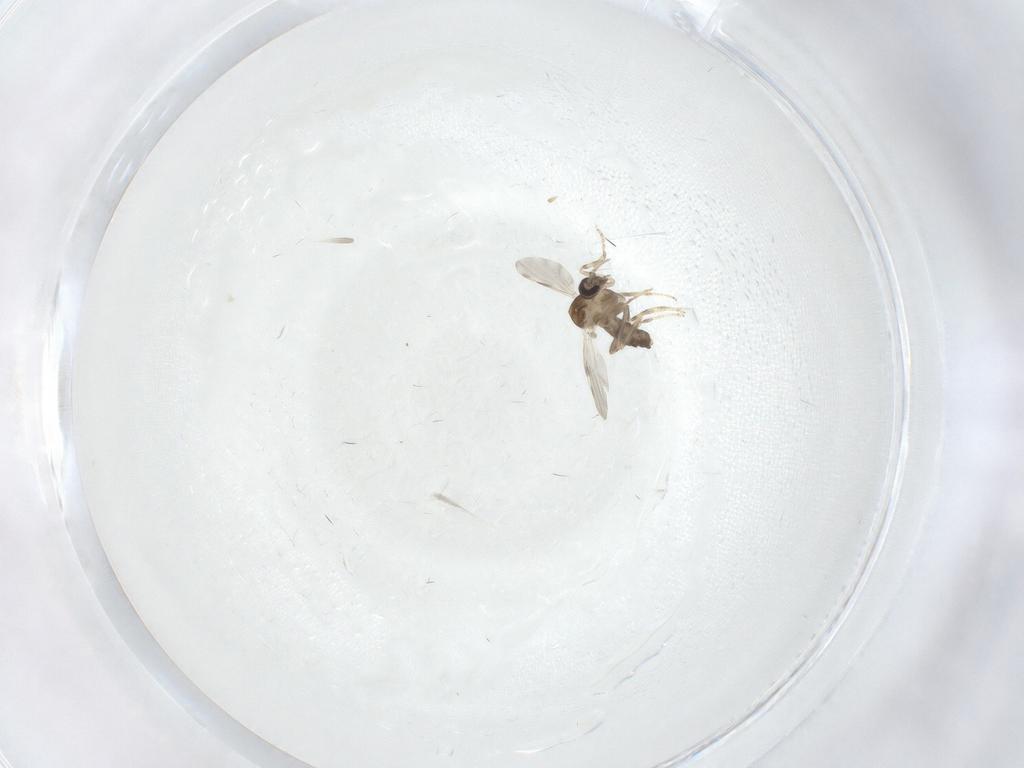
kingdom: Animalia
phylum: Arthropoda
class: Insecta
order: Diptera
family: Ceratopogonidae
